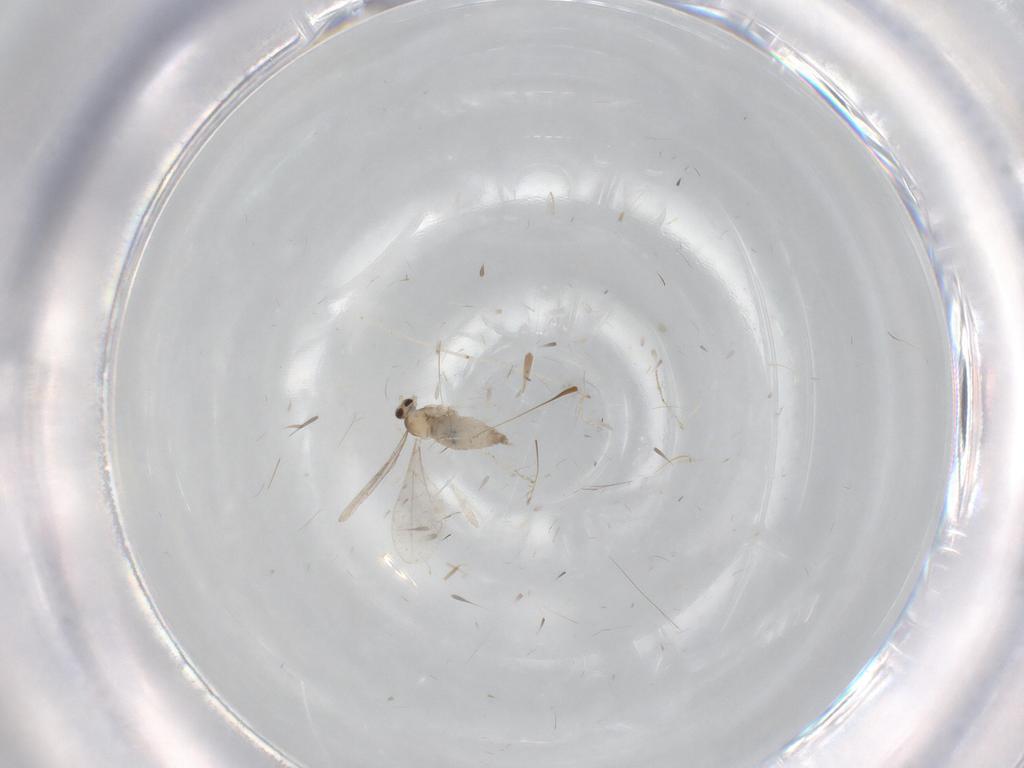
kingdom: Animalia
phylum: Arthropoda
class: Insecta
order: Diptera
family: Cecidomyiidae
